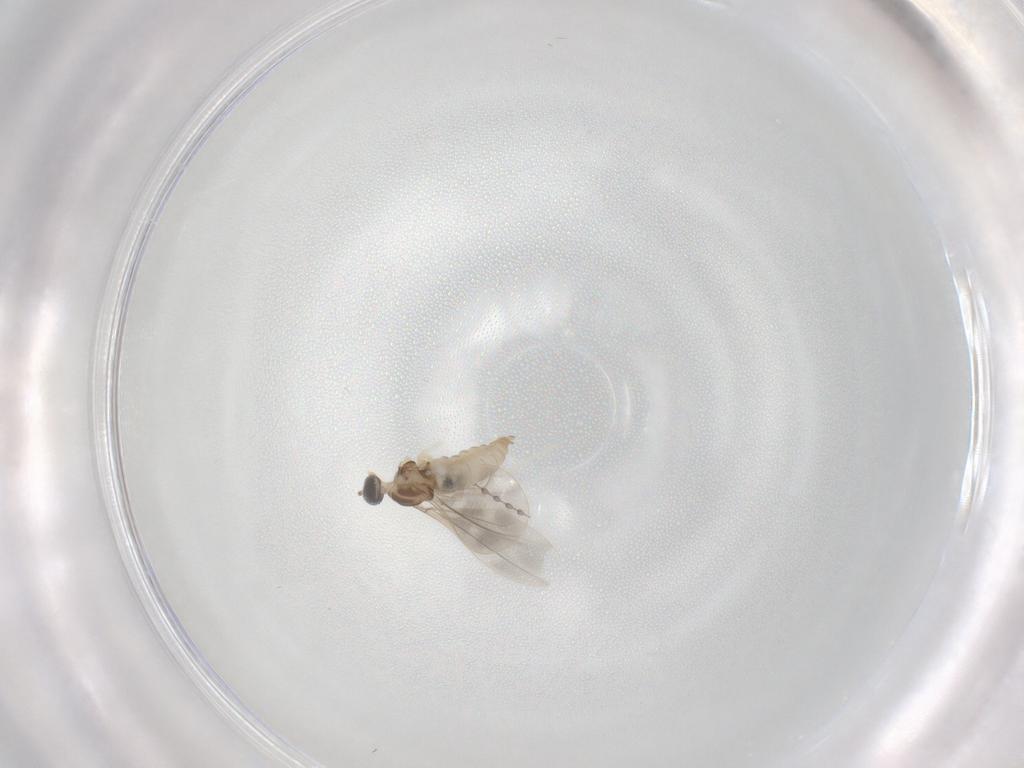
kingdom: Animalia
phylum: Arthropoda
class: Insecta
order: Diptera
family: Cecidomyiidae
